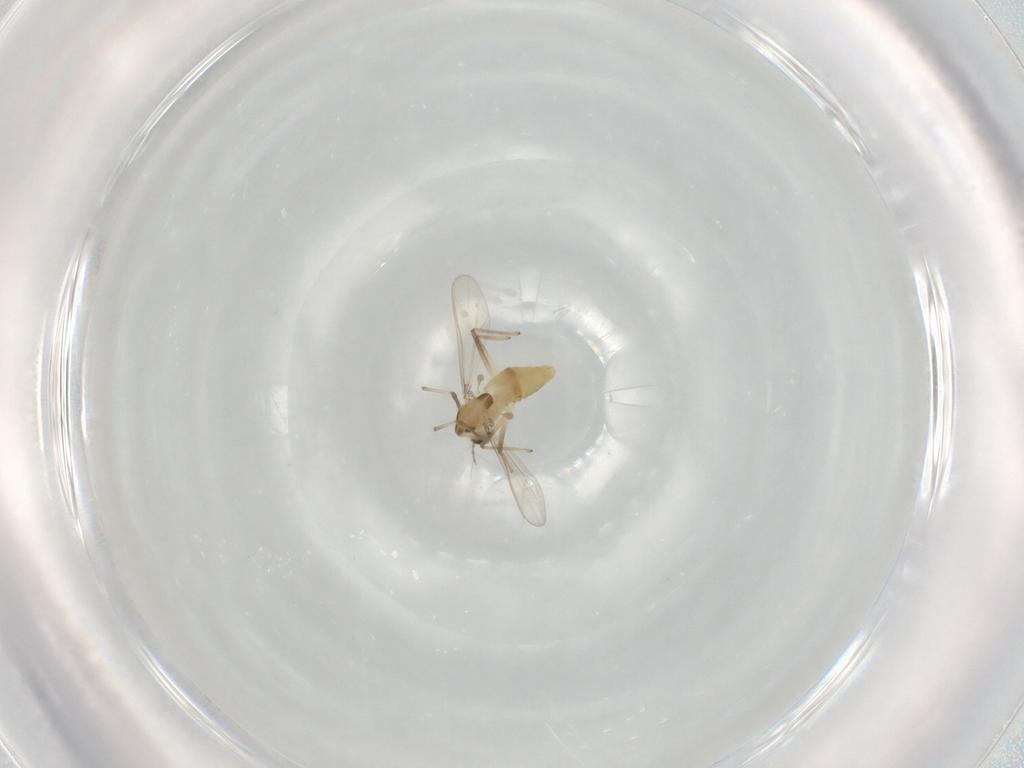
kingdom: Animalia
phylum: Arthropoda
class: Insecta
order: Diptera
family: Chironomidae
